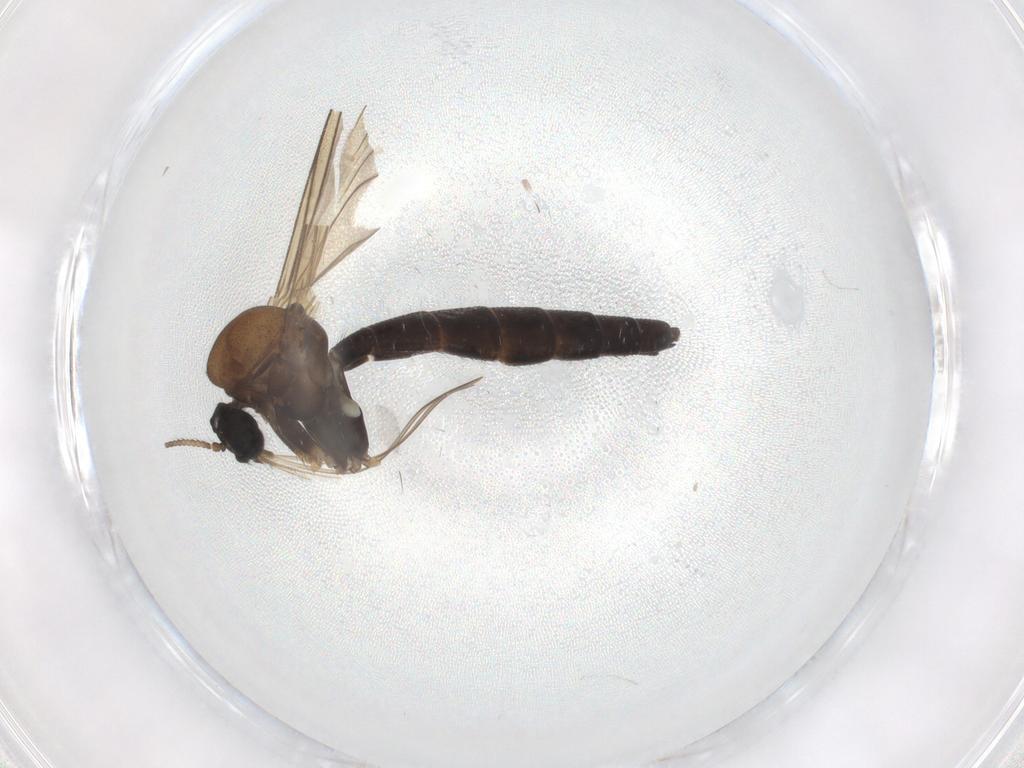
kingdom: Animalia
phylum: Arthropoda
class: Insecta
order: Diptera
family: Keroplatidae
